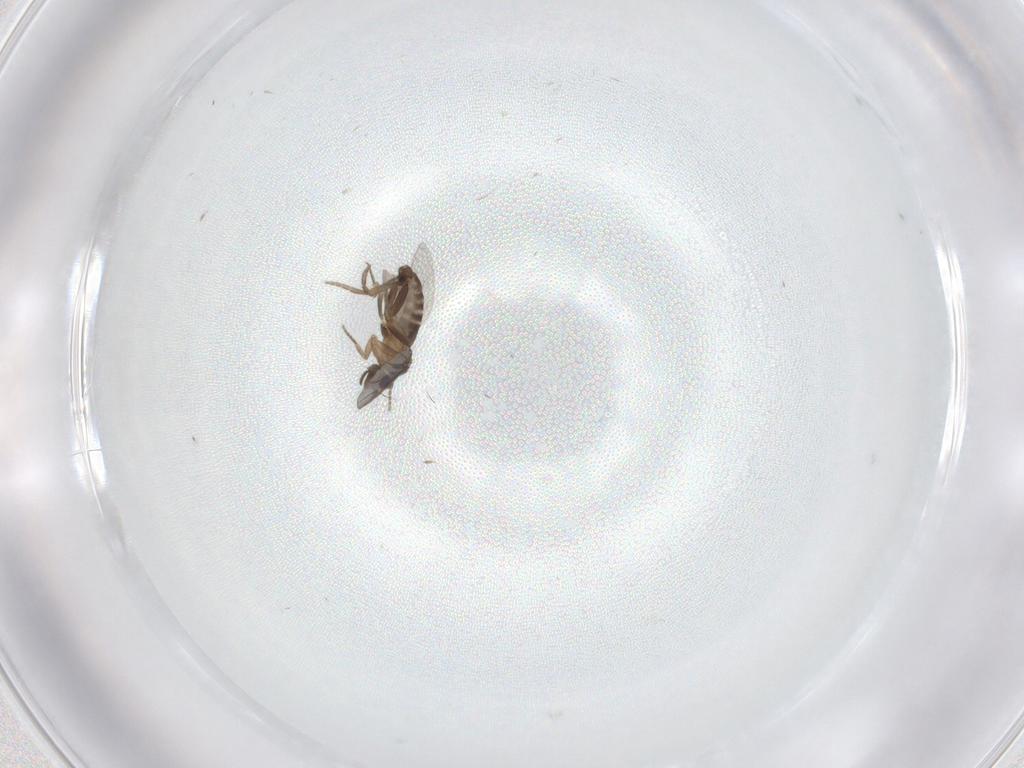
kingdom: Animalia
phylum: Arthropoda
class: Insecta
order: Diptera
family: Phoridae
